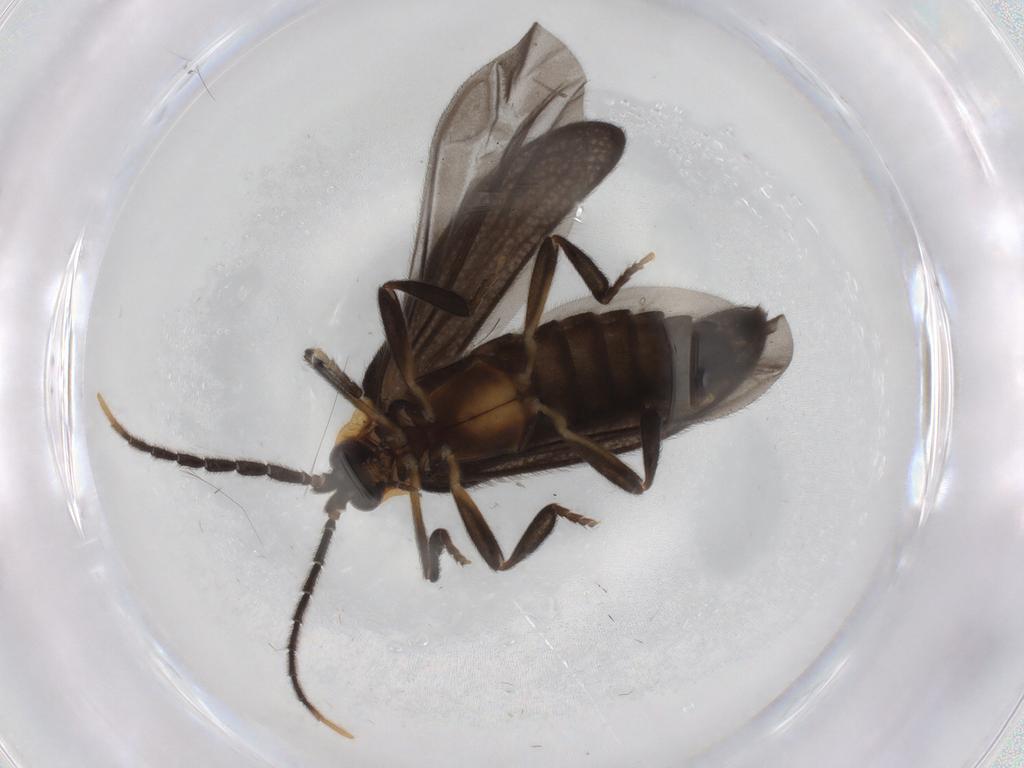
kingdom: Animalia
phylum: Arthropoda
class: Insecta
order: Coleoptera
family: Lycidae
